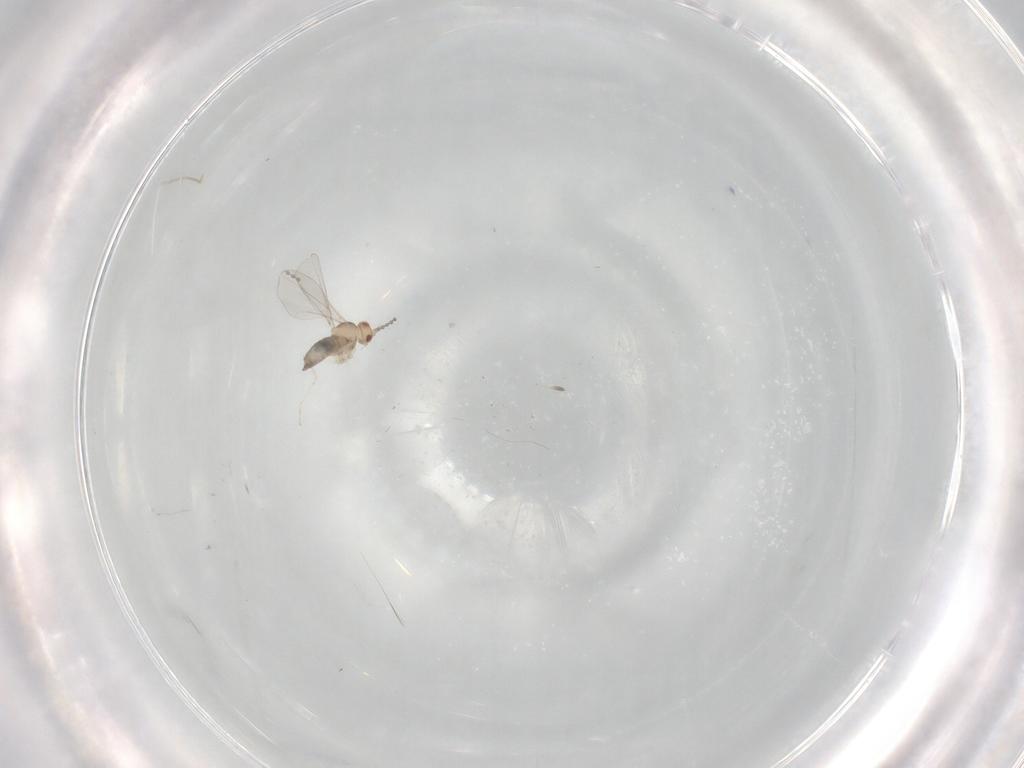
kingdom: Animalia
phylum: Arthropoda
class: Insecta
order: Diptera
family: Cecidomyiidae
